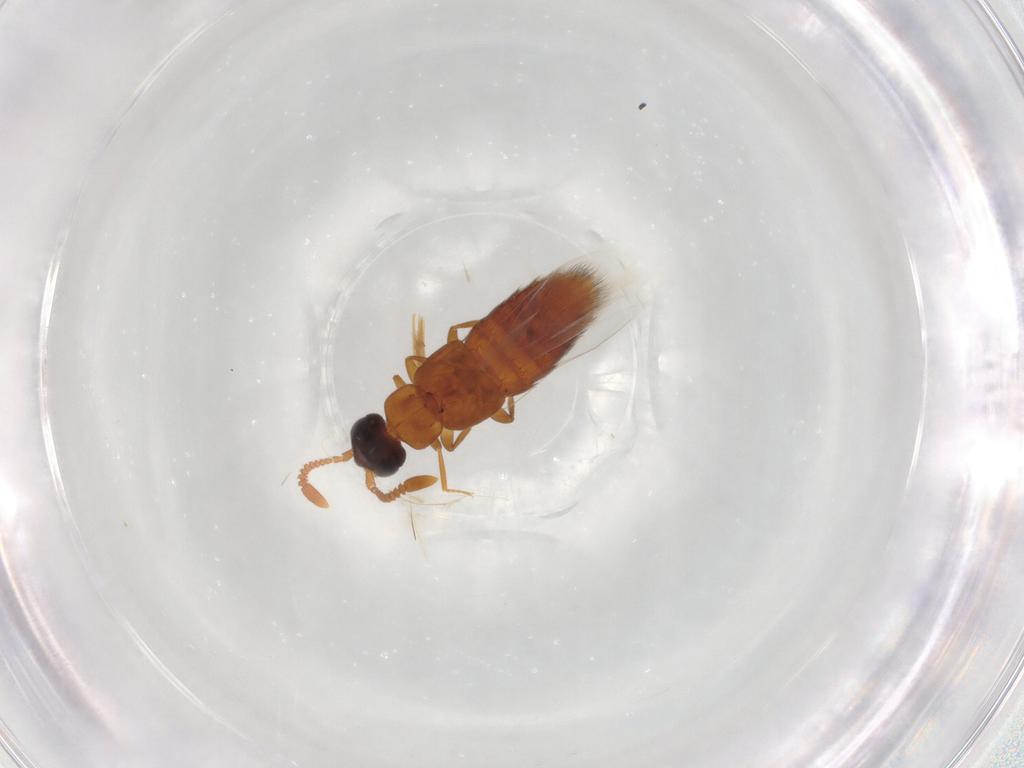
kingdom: Animalia
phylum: Arthropoda
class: Insecta
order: Coleoptera
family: Staphylinidae
